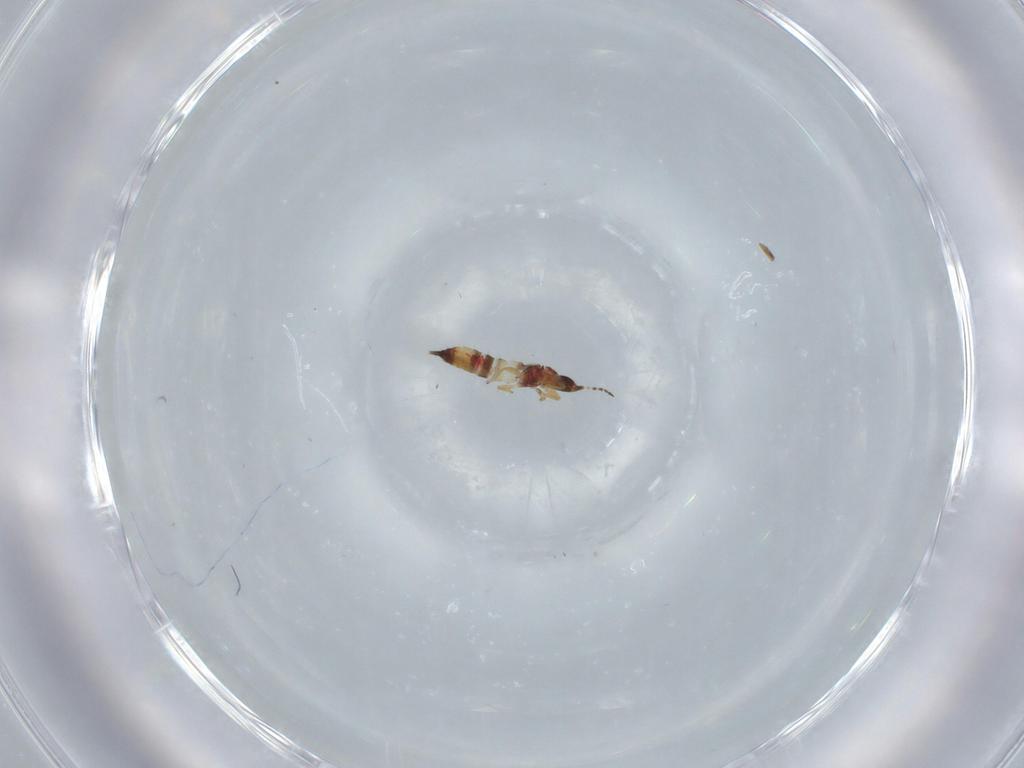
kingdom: Animalia
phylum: Arthropoda
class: Insecta
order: Thysanoptera
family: Phlaeothripidae
